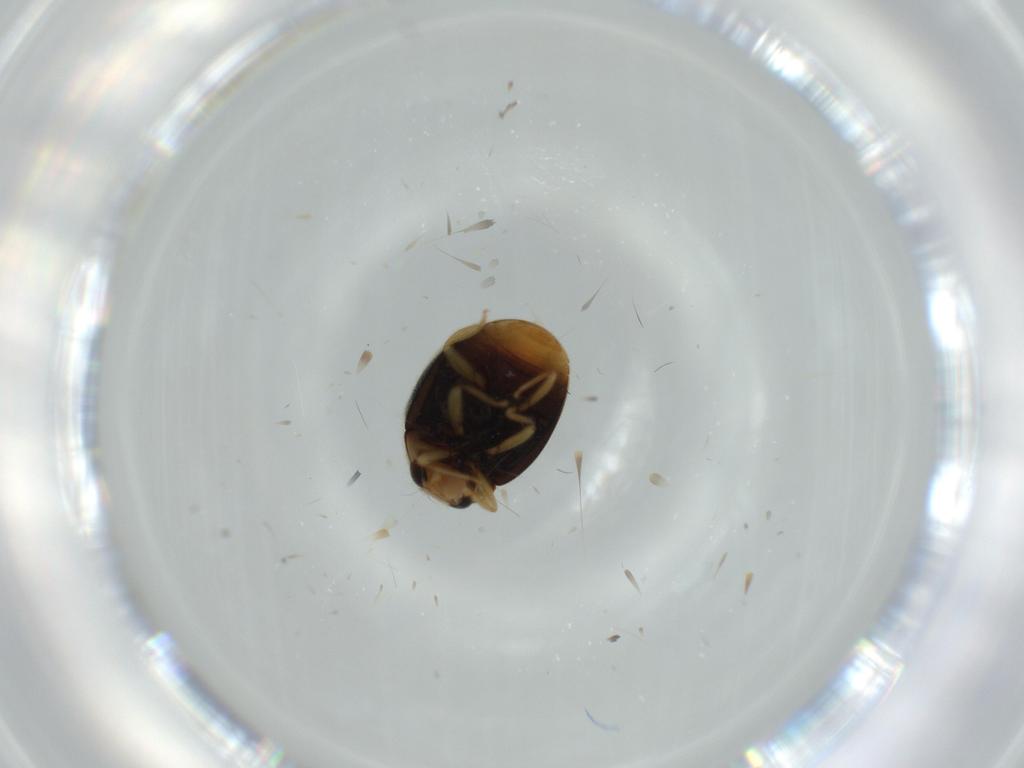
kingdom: Animalia
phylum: Arthropoda
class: Insecta
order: Coleoptera
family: Coccinellidae
